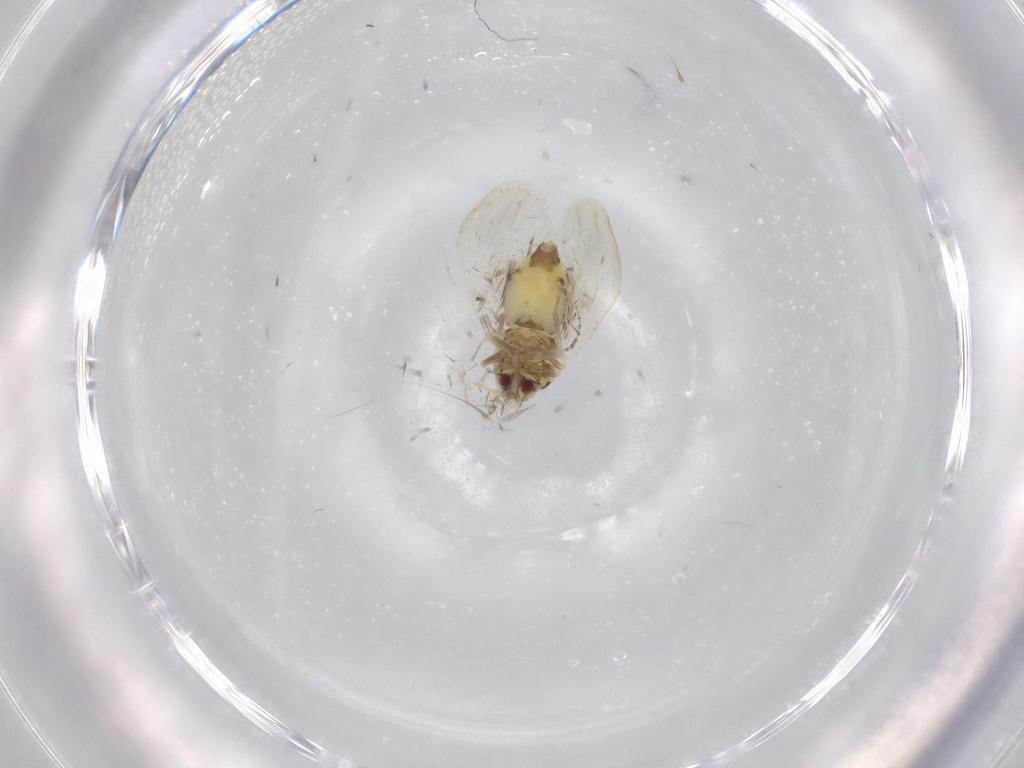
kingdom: Animalia
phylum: Arthropoda
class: Insecta
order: Hemiptera
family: Aleyrodidae
